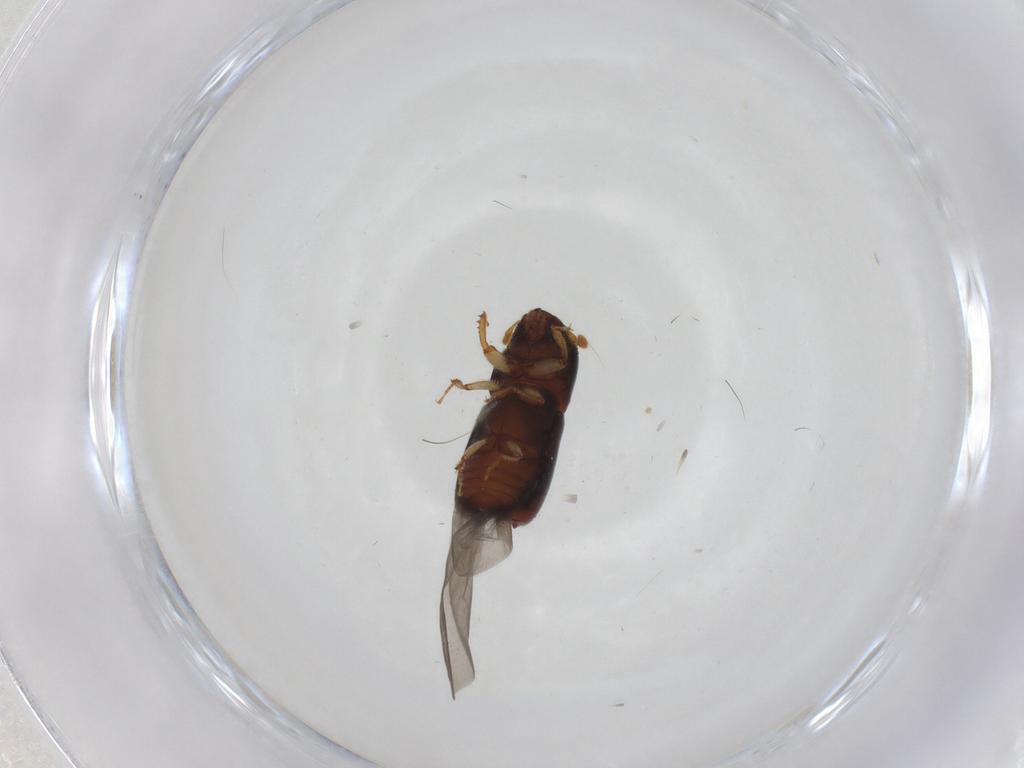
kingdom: Animalia
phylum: Arthropoda
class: Insecta
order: Coleoptera
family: Curculionidae
